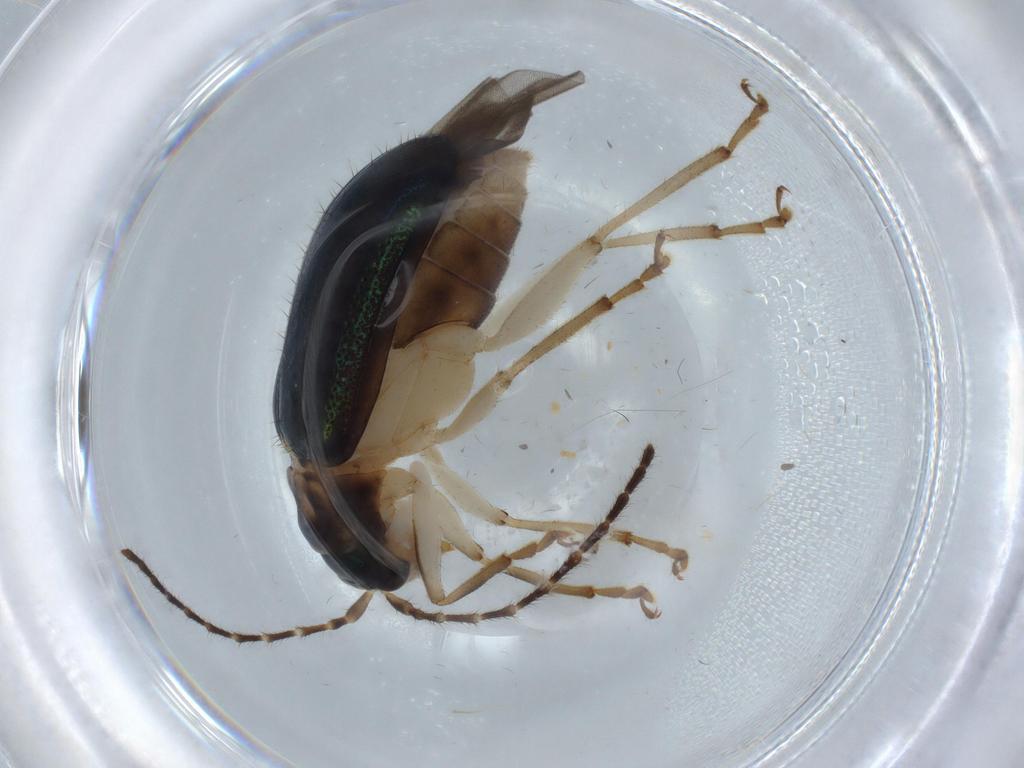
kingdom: Animalia
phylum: Arthropoda
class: Insecta
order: Coleoptera
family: Chrysomelidae
